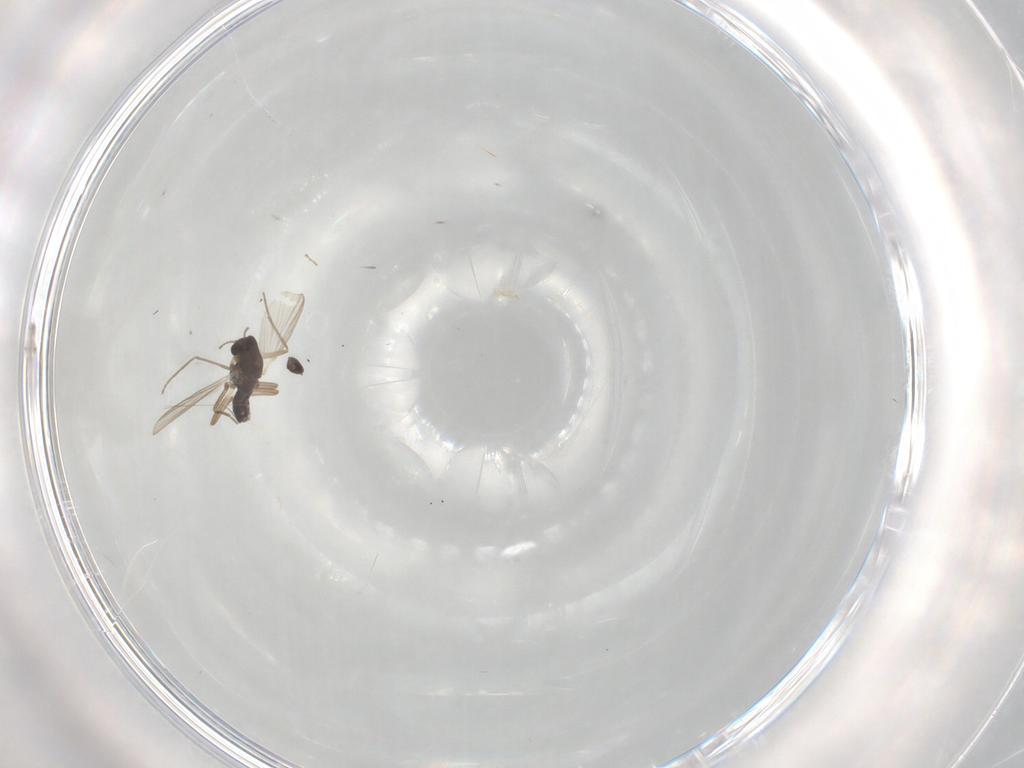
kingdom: Animalia
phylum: Arthropoda
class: Insecta
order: Diptera
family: Chironomidae
